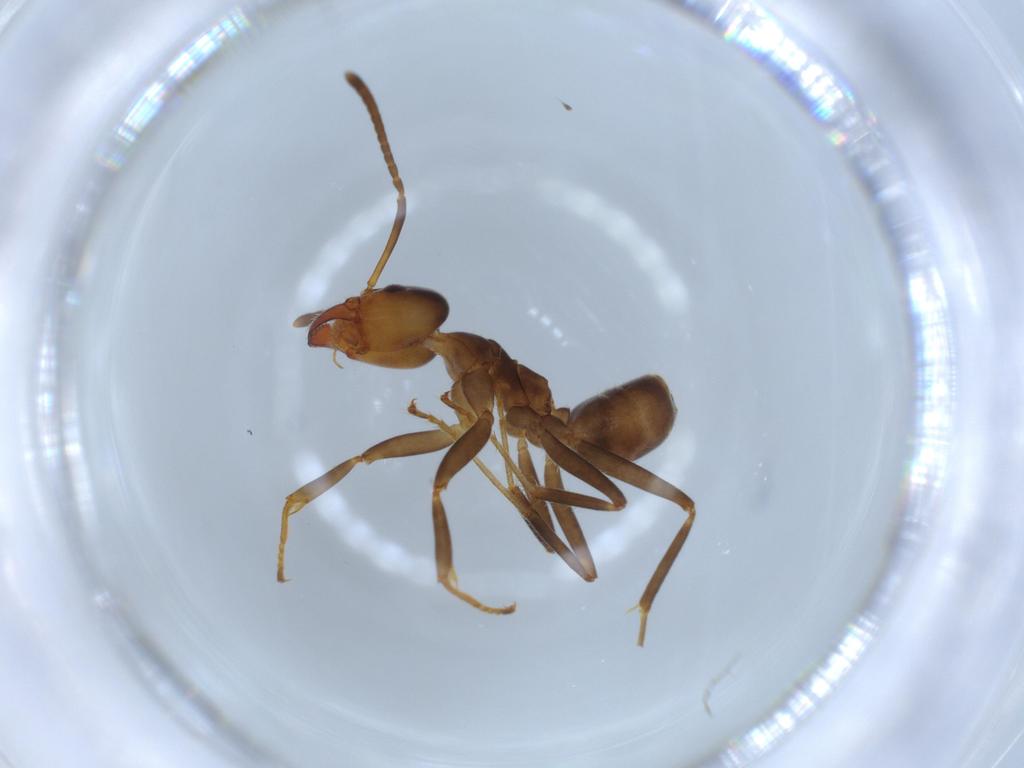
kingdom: Animalia
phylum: Arthropoda
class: Insecta
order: Hymenoptera
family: Formicidae
